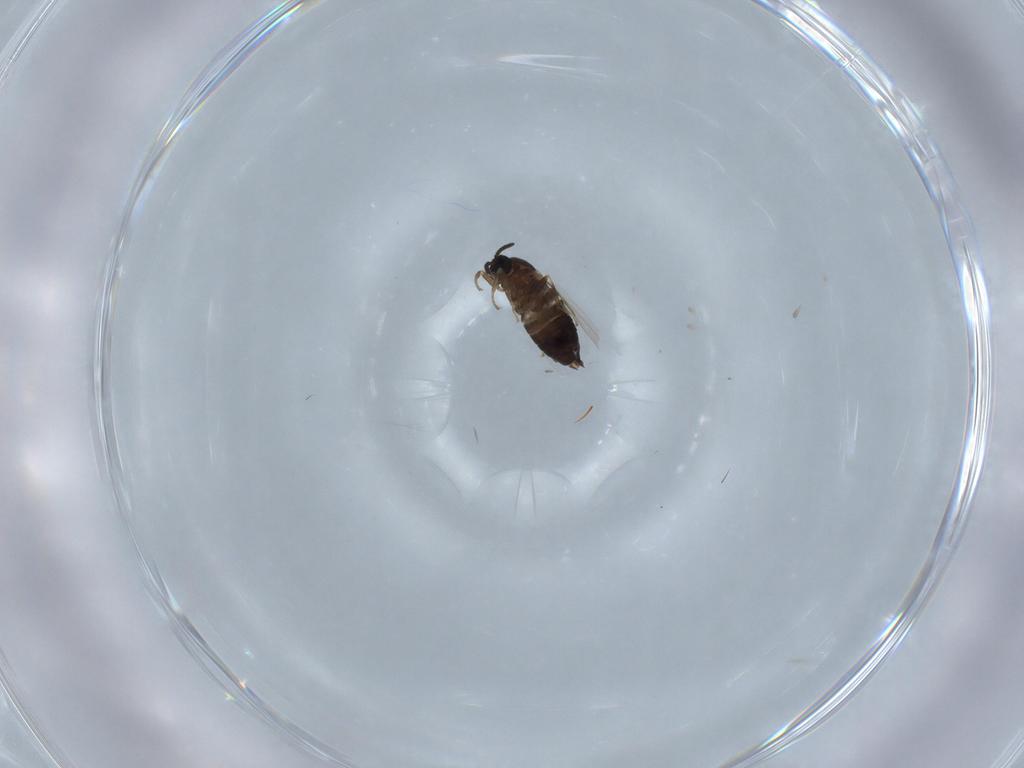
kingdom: Animalia
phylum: Arthropoda
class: Insecta
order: Diptera
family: Scatopsidae
